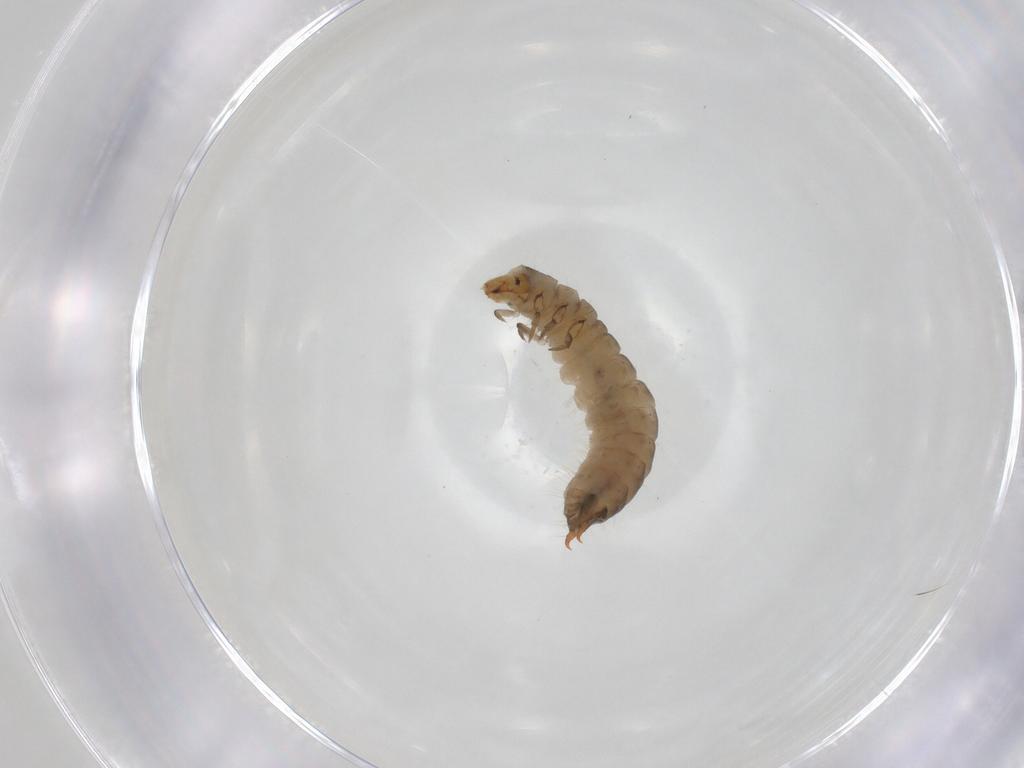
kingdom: Animalia
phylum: Arthropoda
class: Insecta
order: Coleoptera
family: Melyridae
